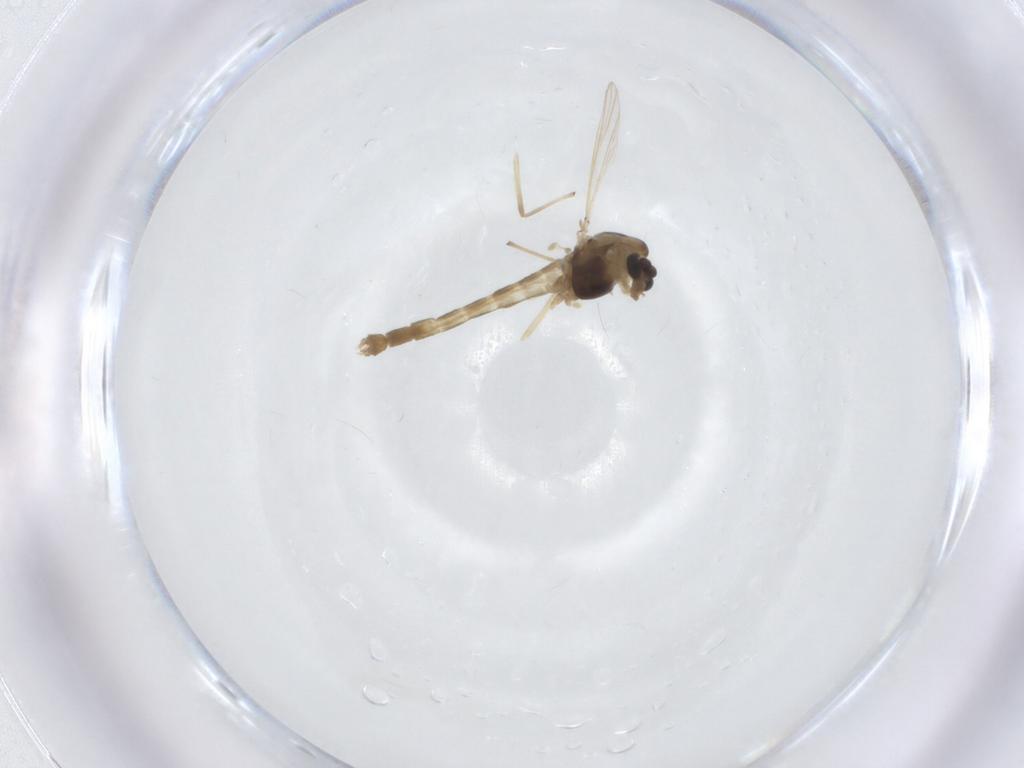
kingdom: Animalia
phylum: Arthropoda
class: Insecta
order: Diptera
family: Chironomidae
